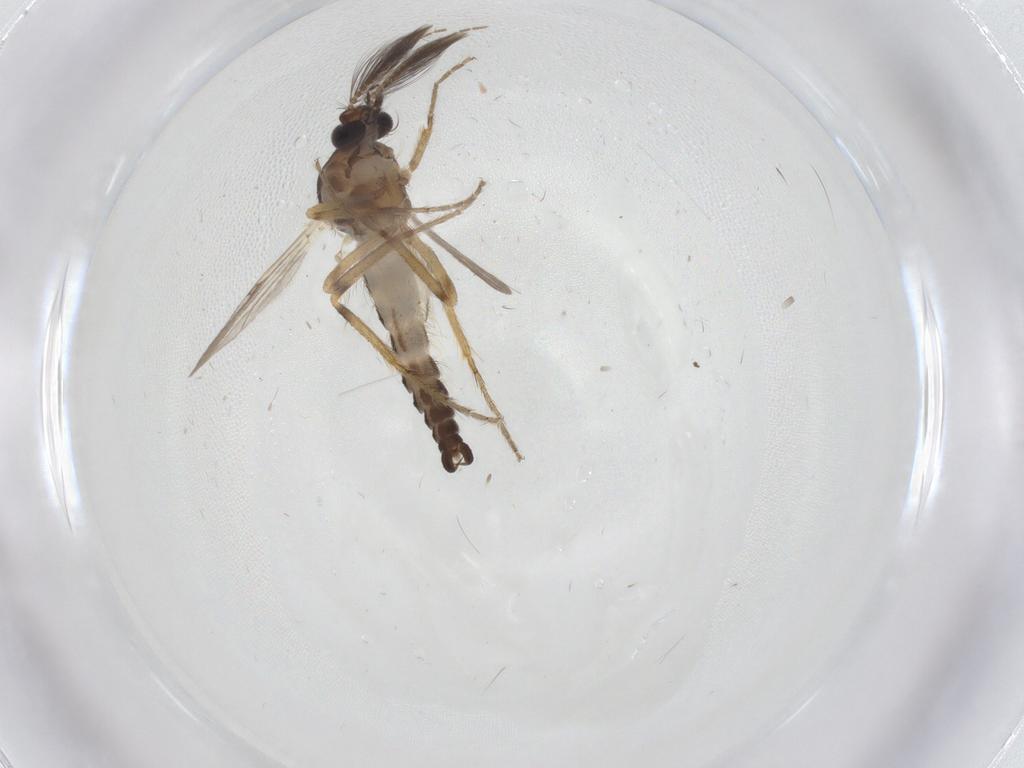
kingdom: Animalia
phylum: Arthropoda
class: Insecta
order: Diptera
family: Ceratopogonidae
